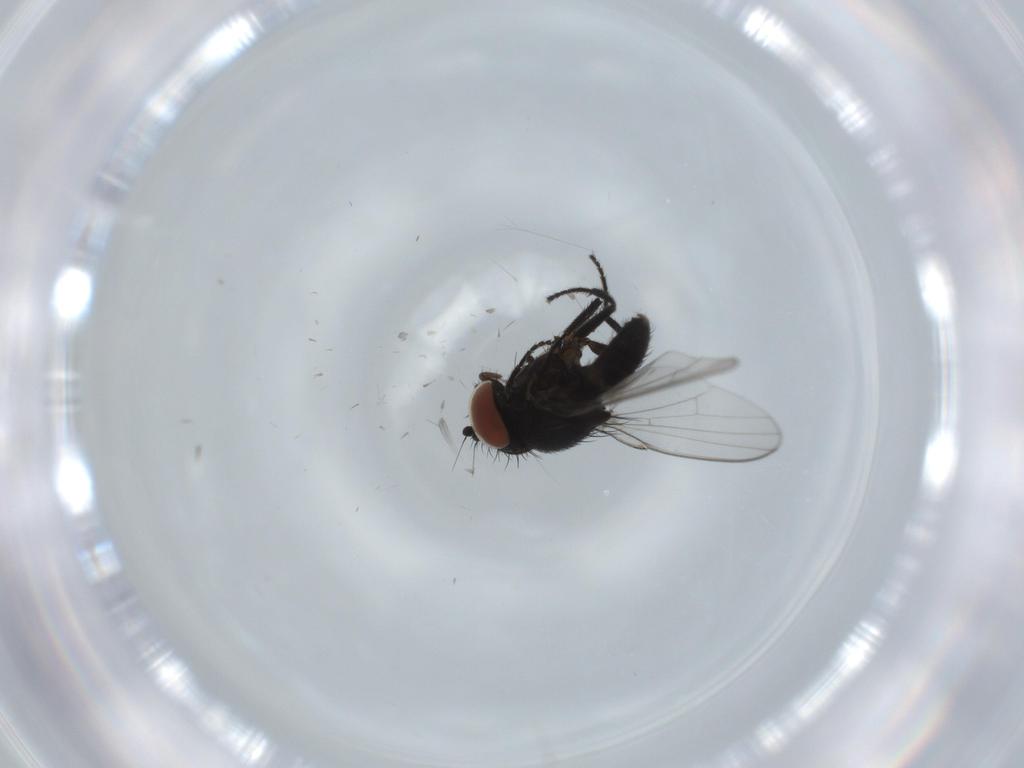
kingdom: Animalia
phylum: Arthropoda
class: Insecta
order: Diptera
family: Milichiidae
